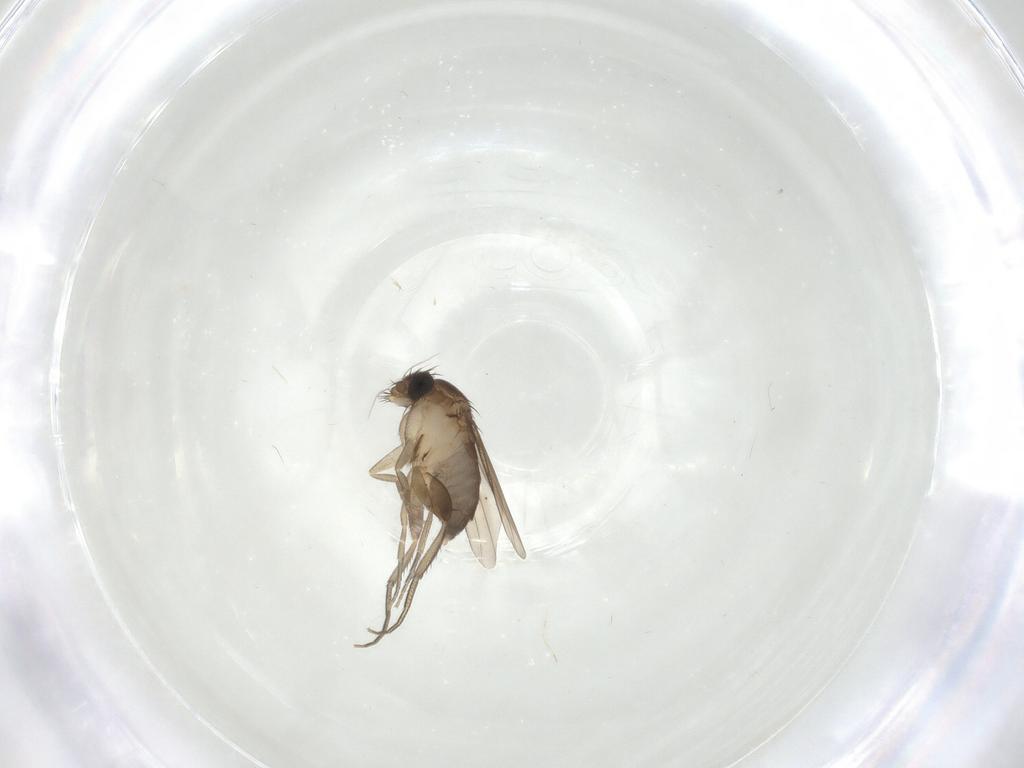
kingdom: Animalia
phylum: Arthropoda
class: Insecta
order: Diptera
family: Phoridae
